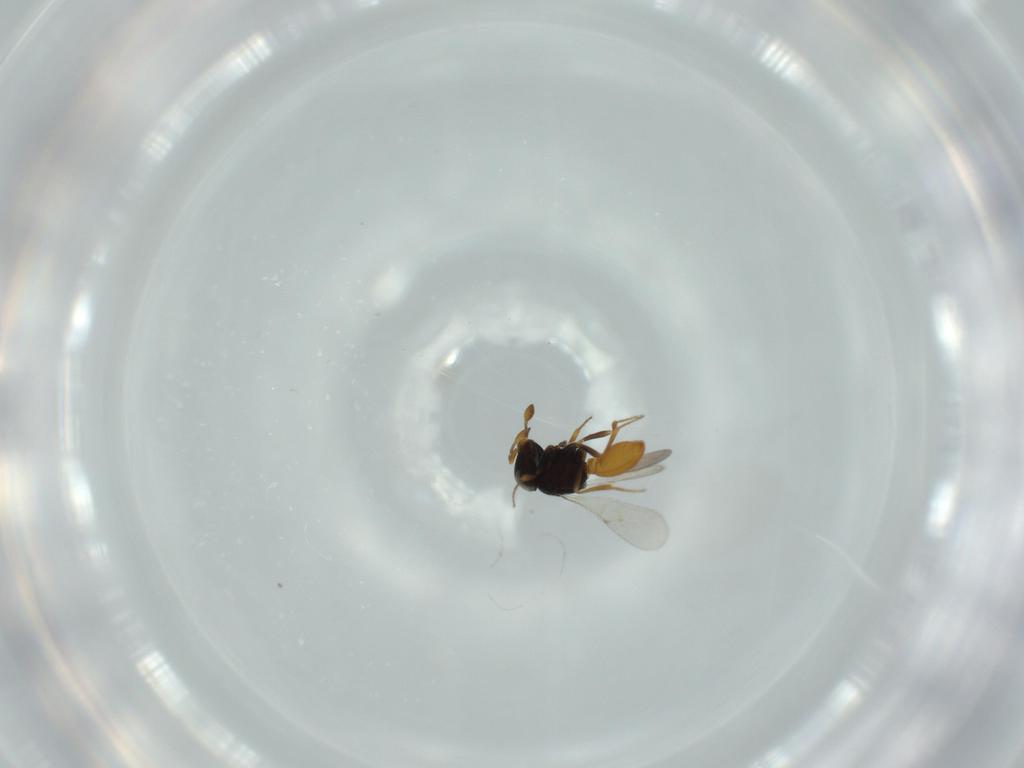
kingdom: Animalia
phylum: Arthropoda
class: Insecta
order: Hymenoptera
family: Scelionidae
